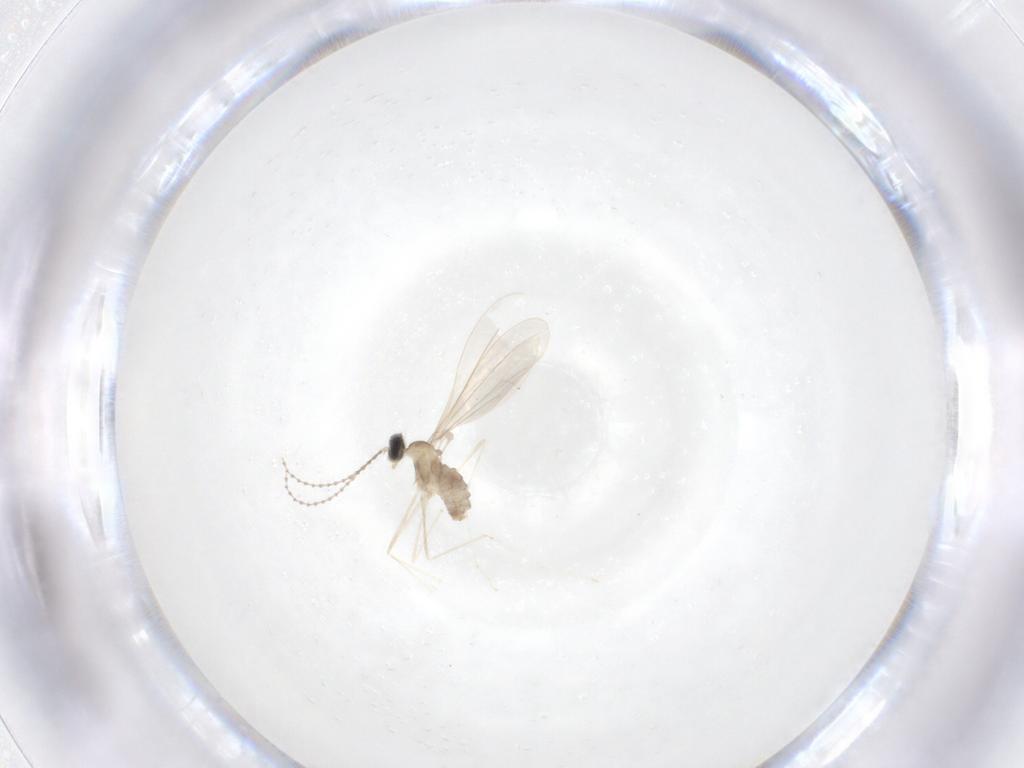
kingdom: Animalia
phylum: Arthropoda
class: Insecta
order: Diptera
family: Cecidomyiidae
